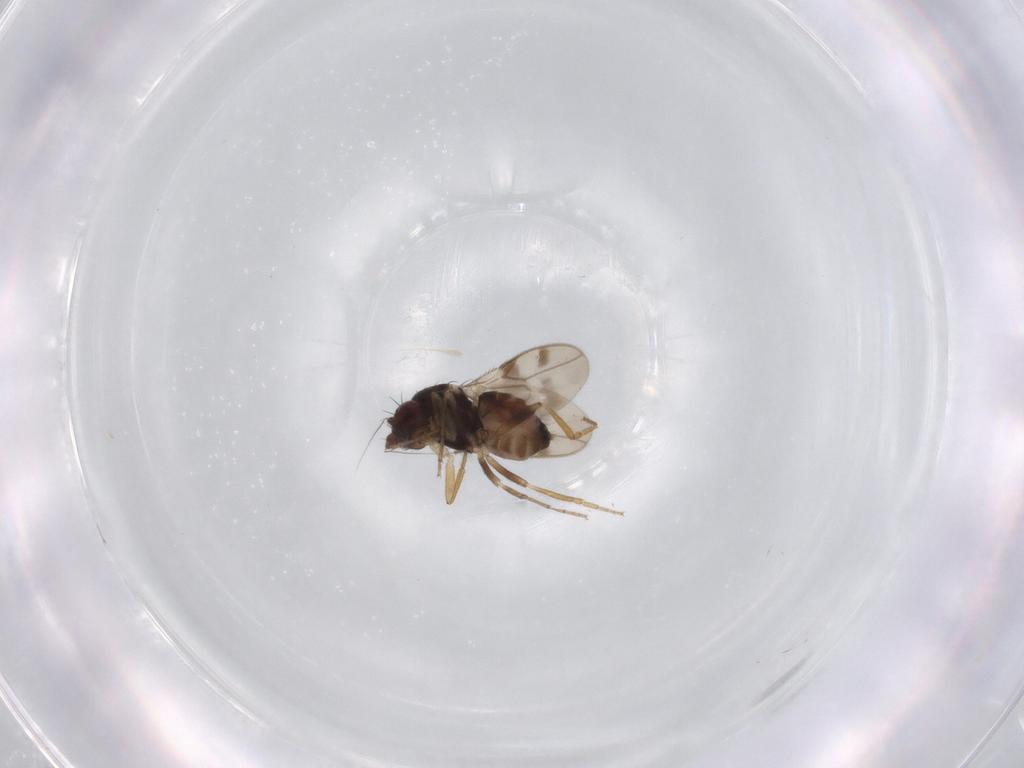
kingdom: Animalia
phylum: Arthropoda
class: Insecta
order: Diptera
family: Sphaeroceridae
